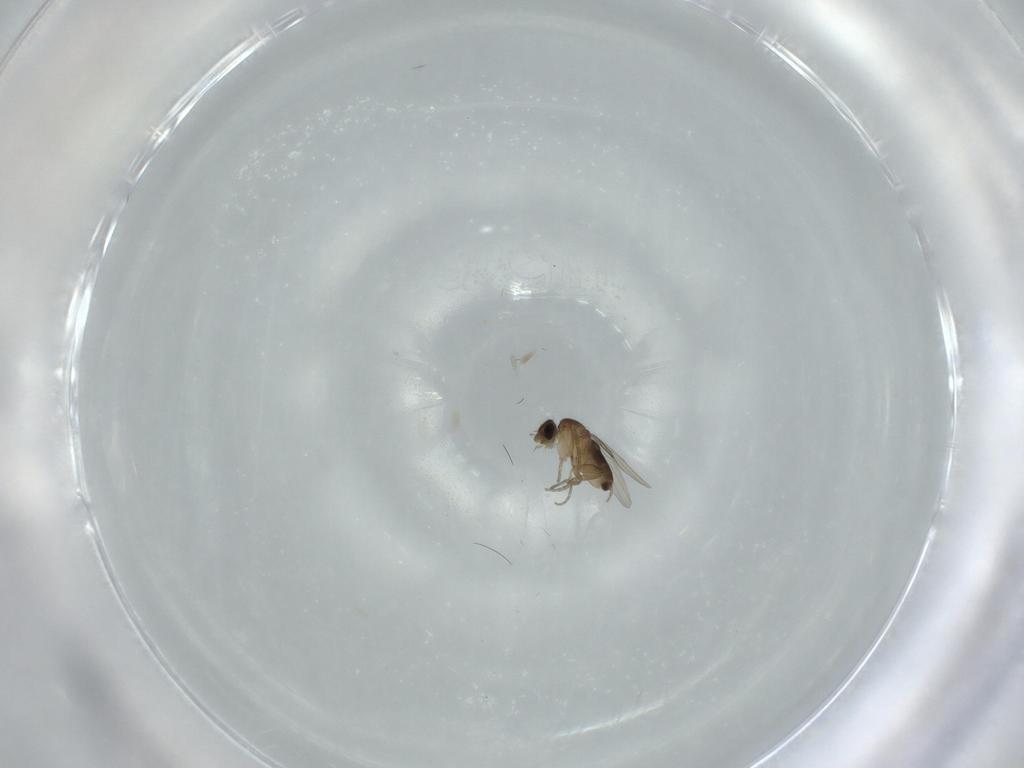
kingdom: Animalia
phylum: Arthropoda
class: Insecta
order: Diptera
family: Phoridae
